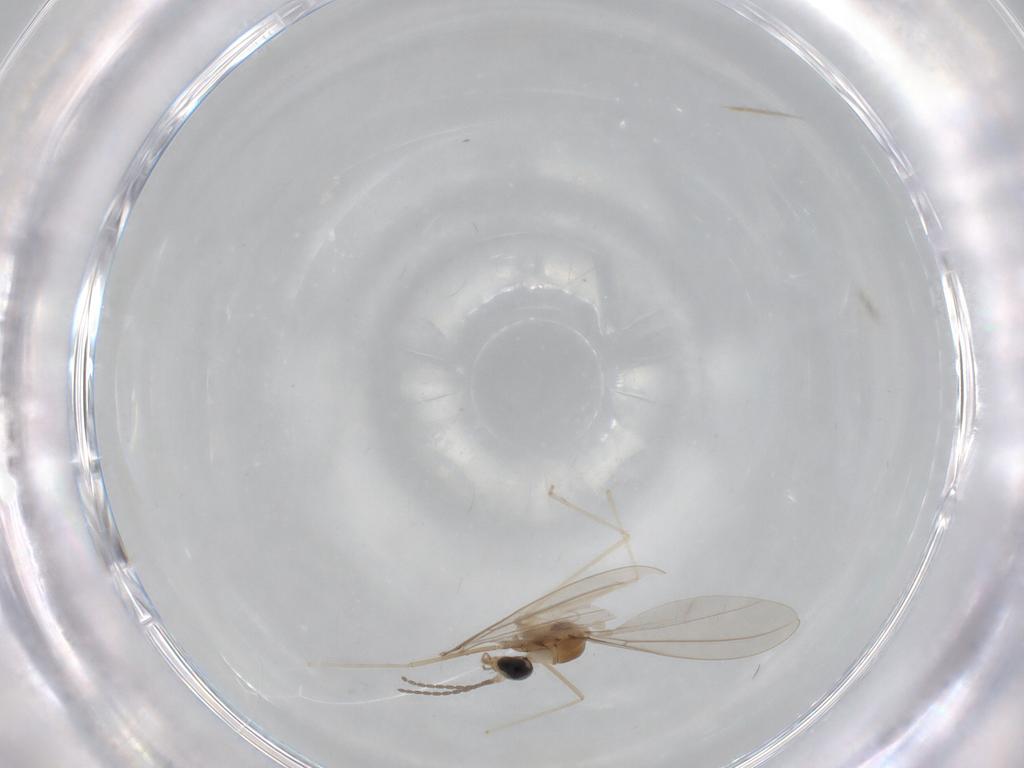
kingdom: Animalia
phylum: Arthropoda
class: Insecta
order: Diptera
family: Cecidomyiidae
